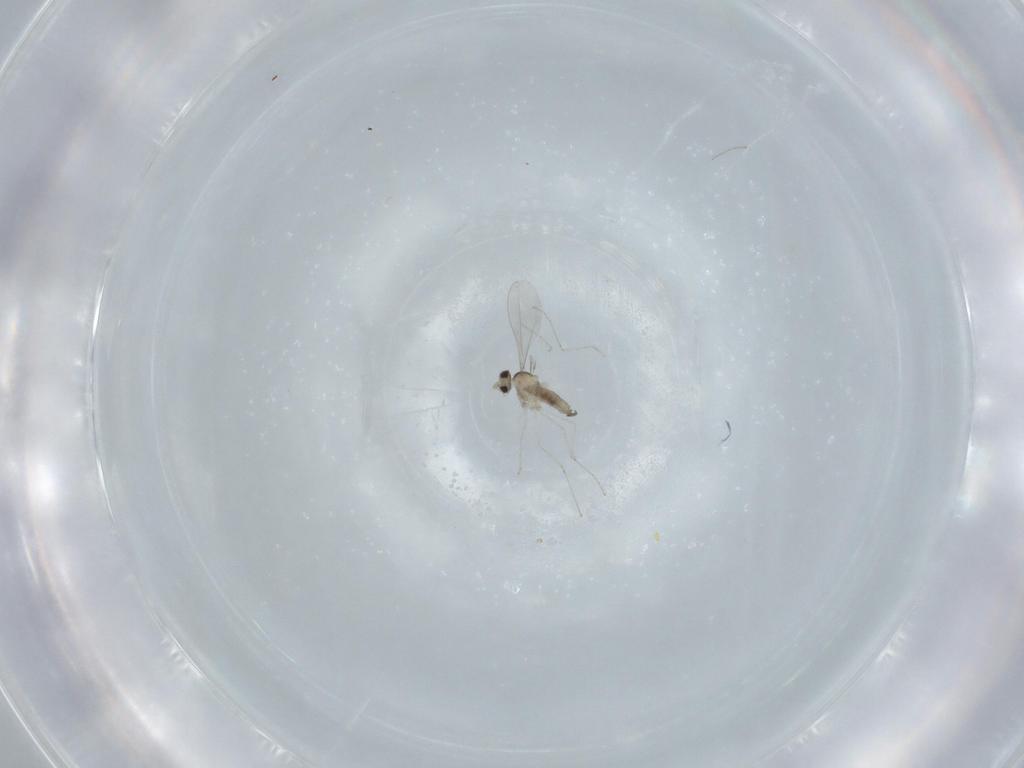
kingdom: Animalia
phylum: Arthropoda
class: Insecta
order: Diptera
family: Cecidomyiidae
